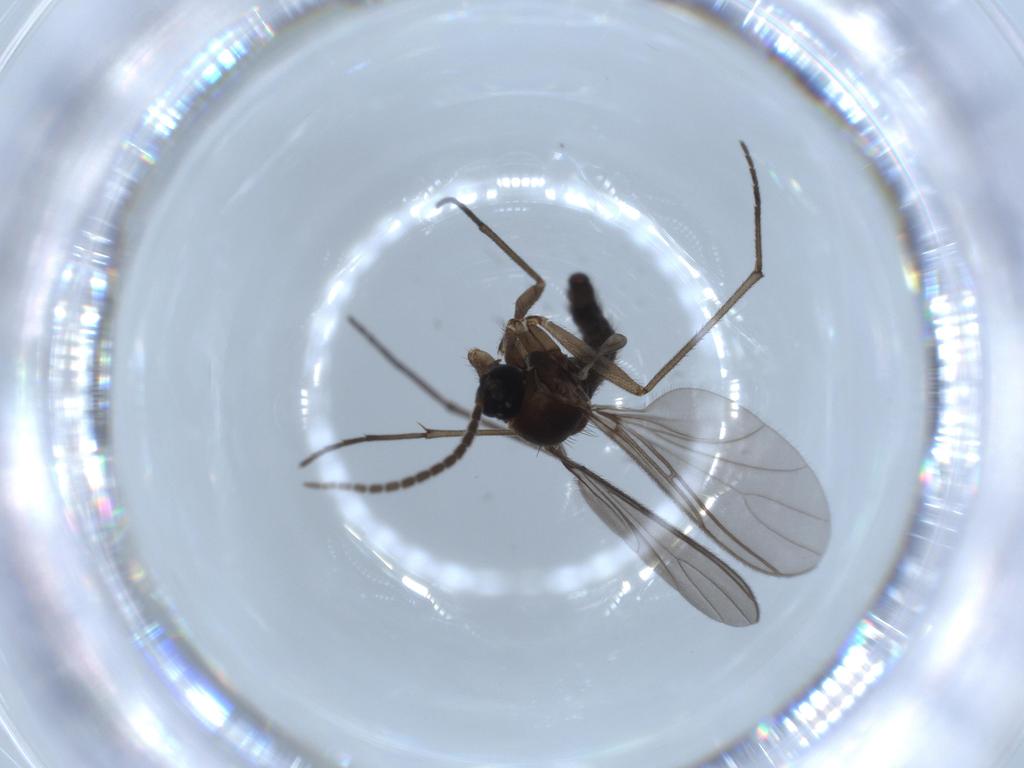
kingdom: Animalia
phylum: Arthropoda
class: Insecta
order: Diptera
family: Sciaridae
